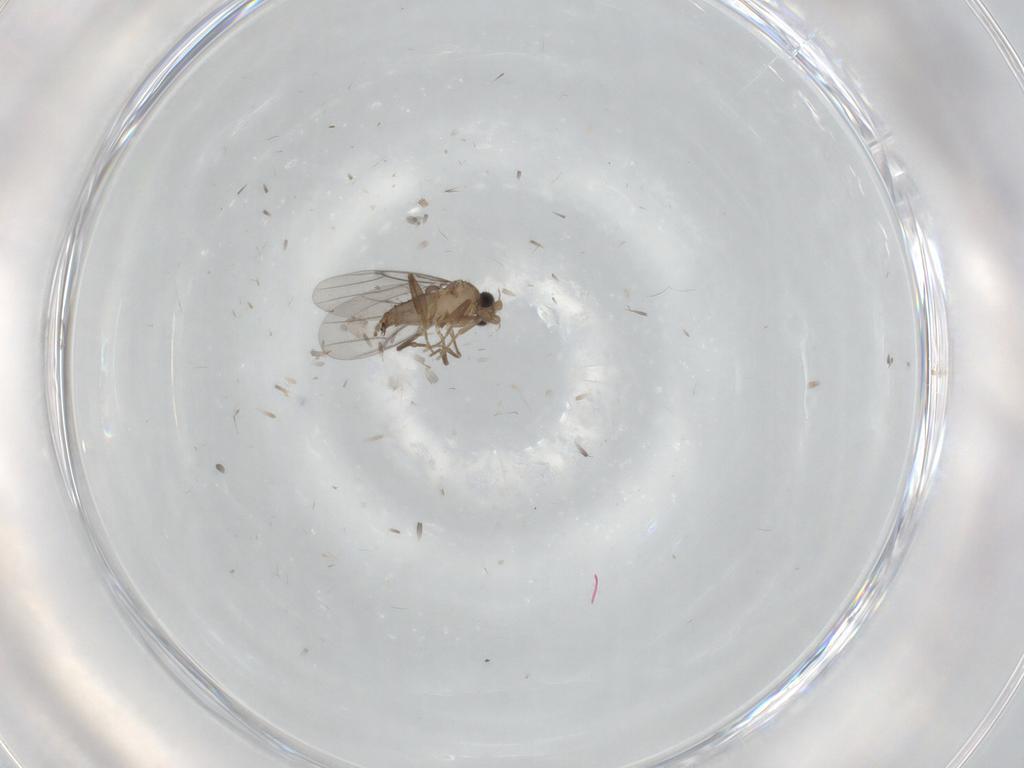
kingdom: Animalia
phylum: Arthropoda
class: Insecta
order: Diptera
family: Cecidomyiidae
